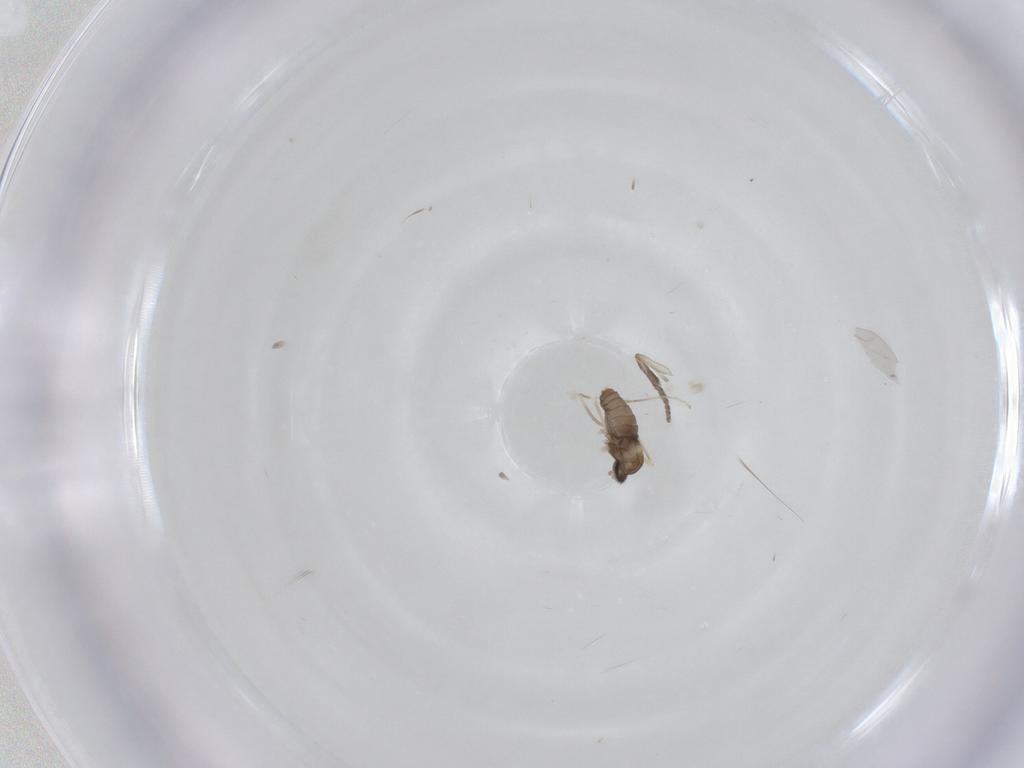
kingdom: Animalia
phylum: Arthropoda
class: Insecta
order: Diptera
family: Cecidomyiidae
